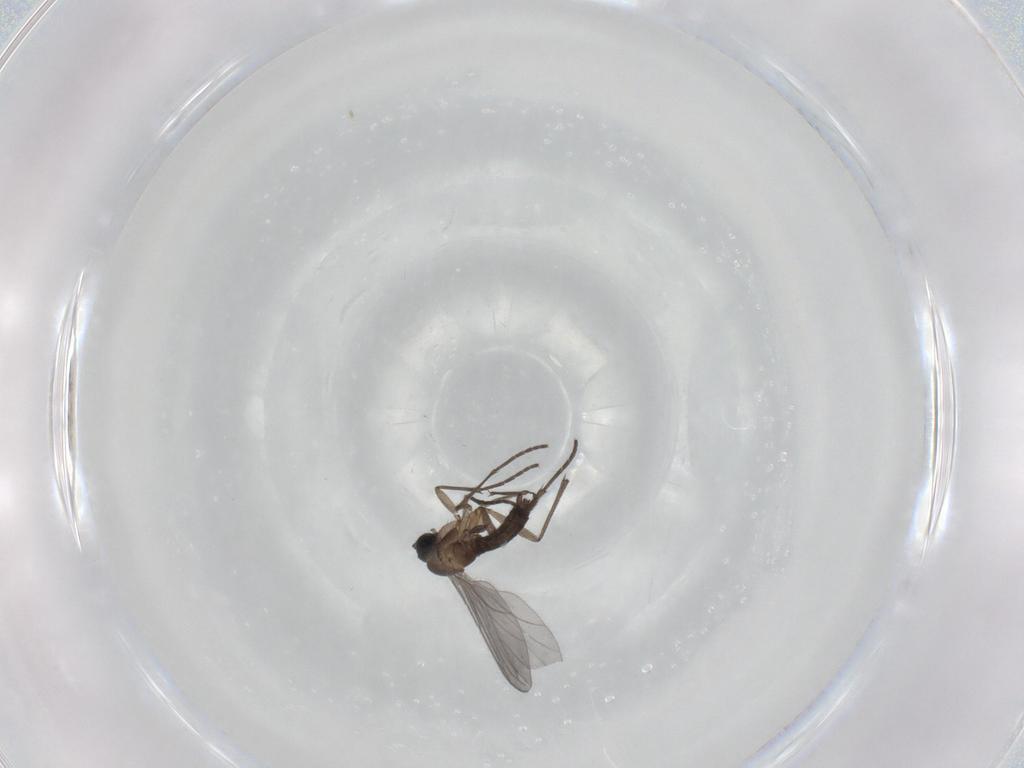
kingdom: Animalia
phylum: Arthropoda
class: Insecta
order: Diptera
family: Sciaridae
